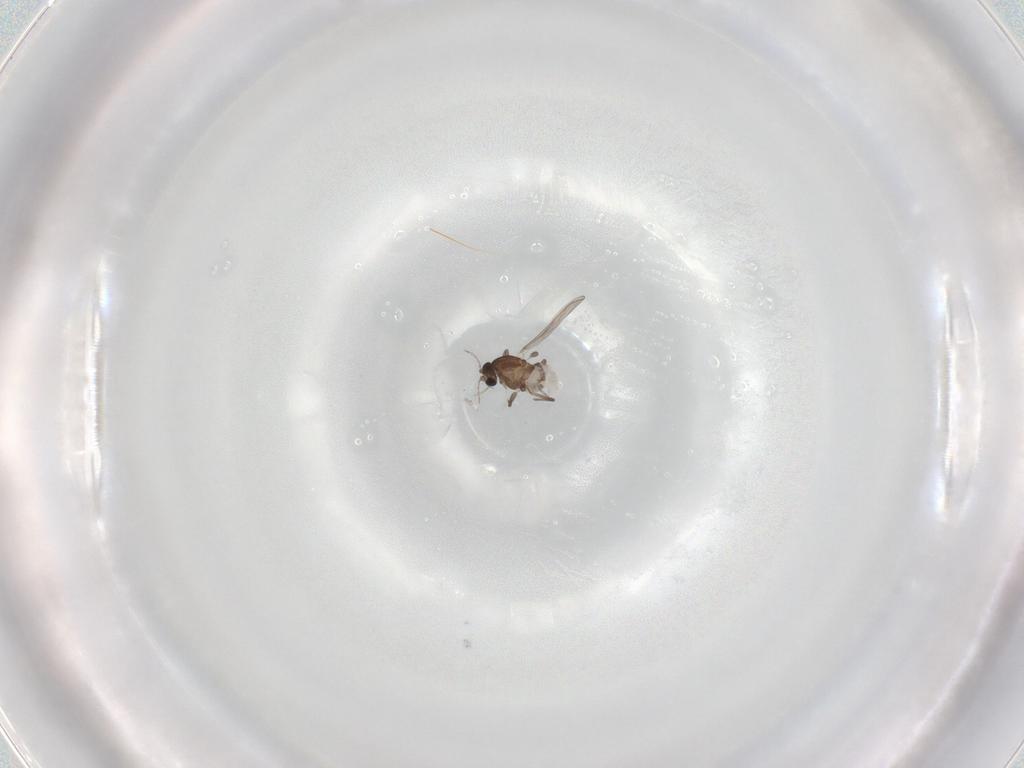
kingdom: Animalia
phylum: Arthropoda
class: Insecta
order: Diptera
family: Chironomidae
